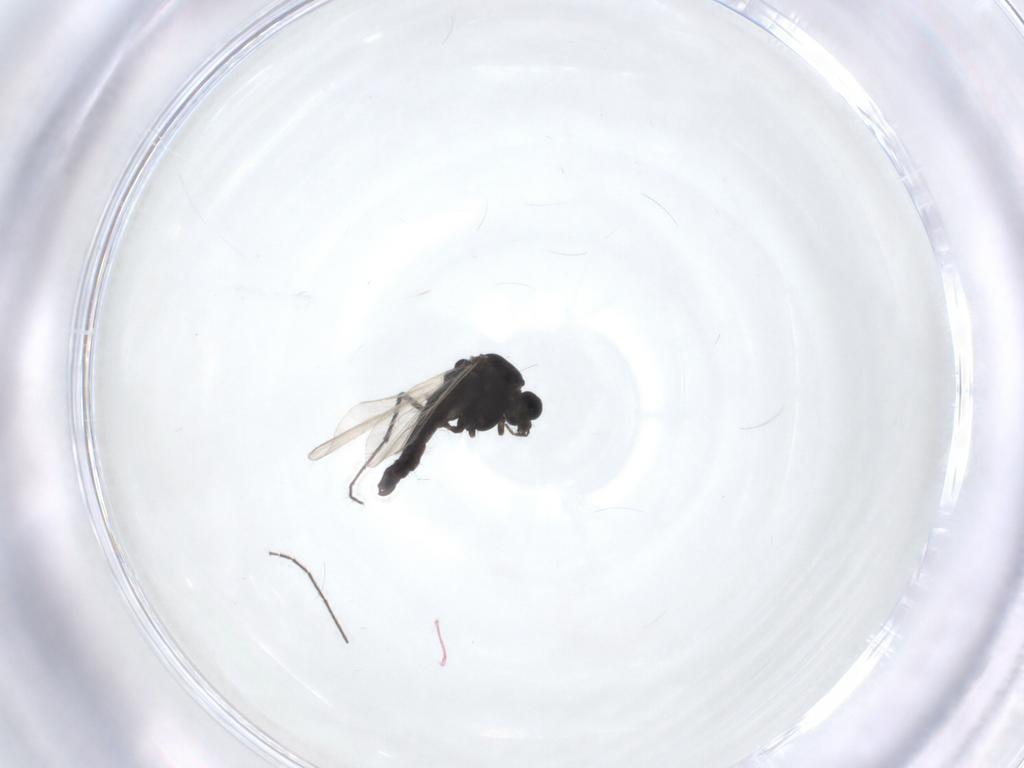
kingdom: Animalia
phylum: Arthropoda
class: Insecta
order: Diptera
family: Chironomidae
